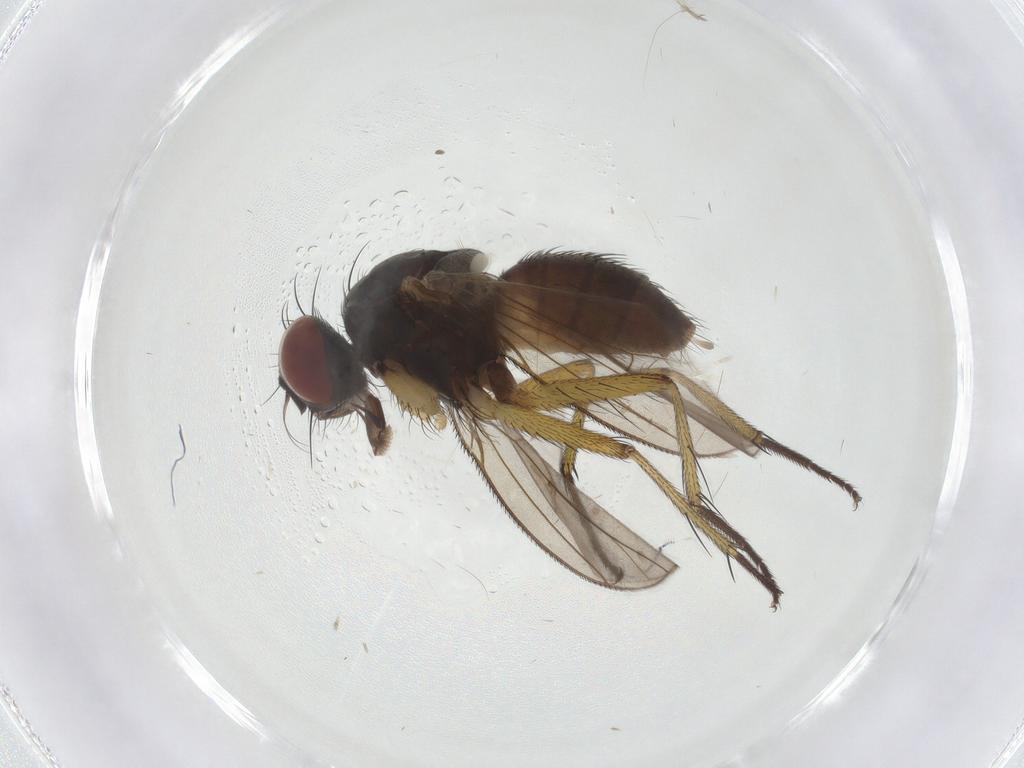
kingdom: Animalia
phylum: Arthropoda
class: Insecta
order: Diptera
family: Muscidae
